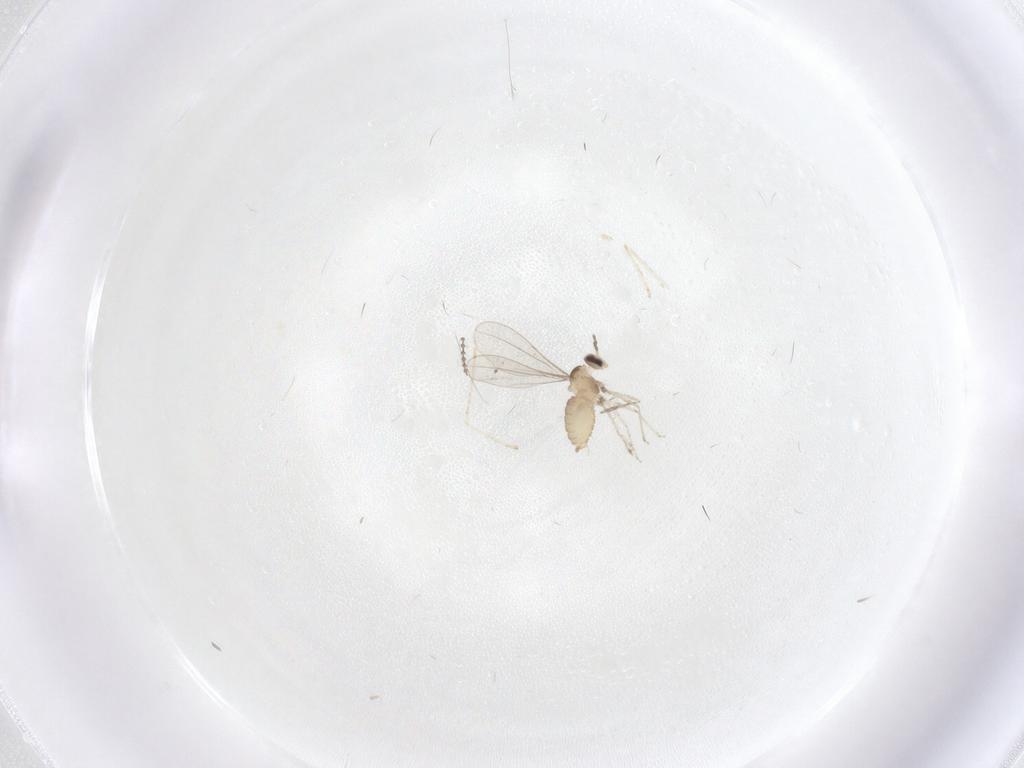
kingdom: Animalia
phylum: Arthropoda
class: Insecta
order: Diptera
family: Cecidomyiidae
